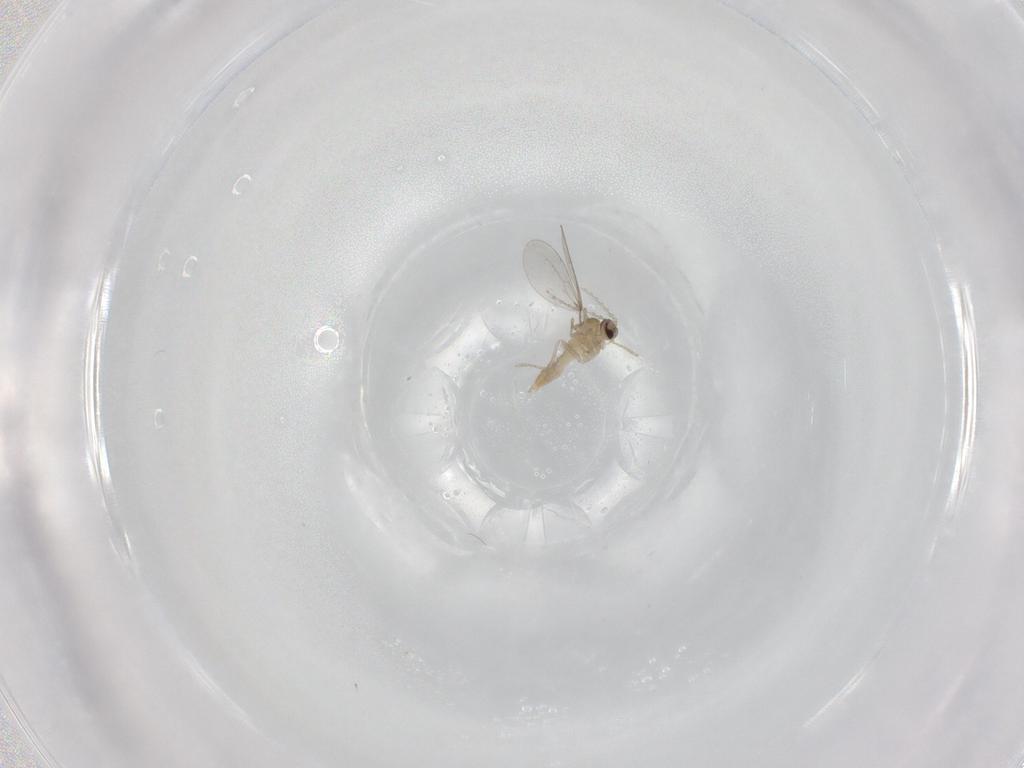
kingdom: Animalia
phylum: Arthropoda
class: Insecta
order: Diptera
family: Cecidomyiidae
